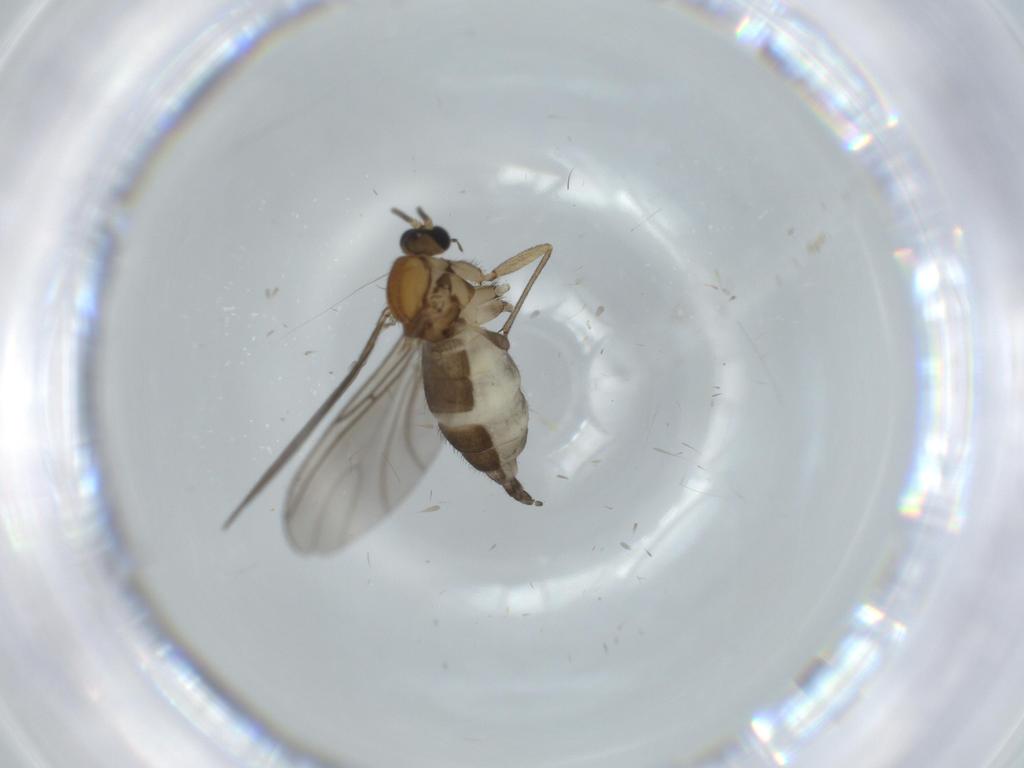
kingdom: Animalia
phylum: Arthropoda
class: Insecta
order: Diptera
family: Sciaridae
